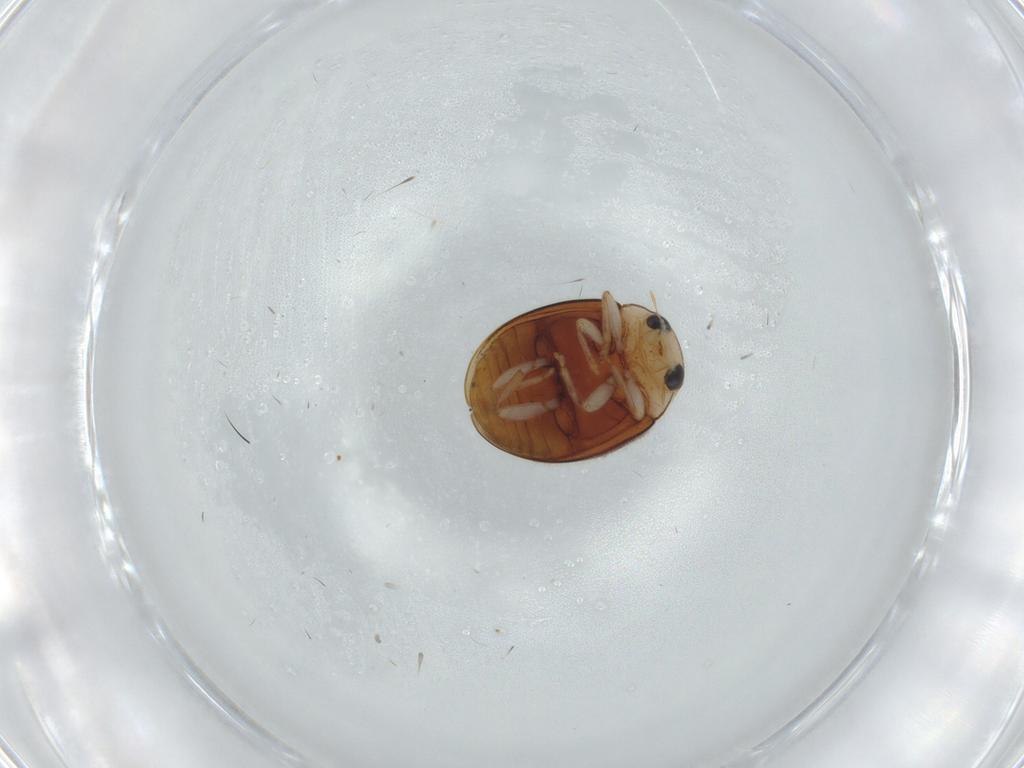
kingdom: Animalia
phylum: Arthropoda
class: Insecta
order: Coleoptera
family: Coccinellidae
